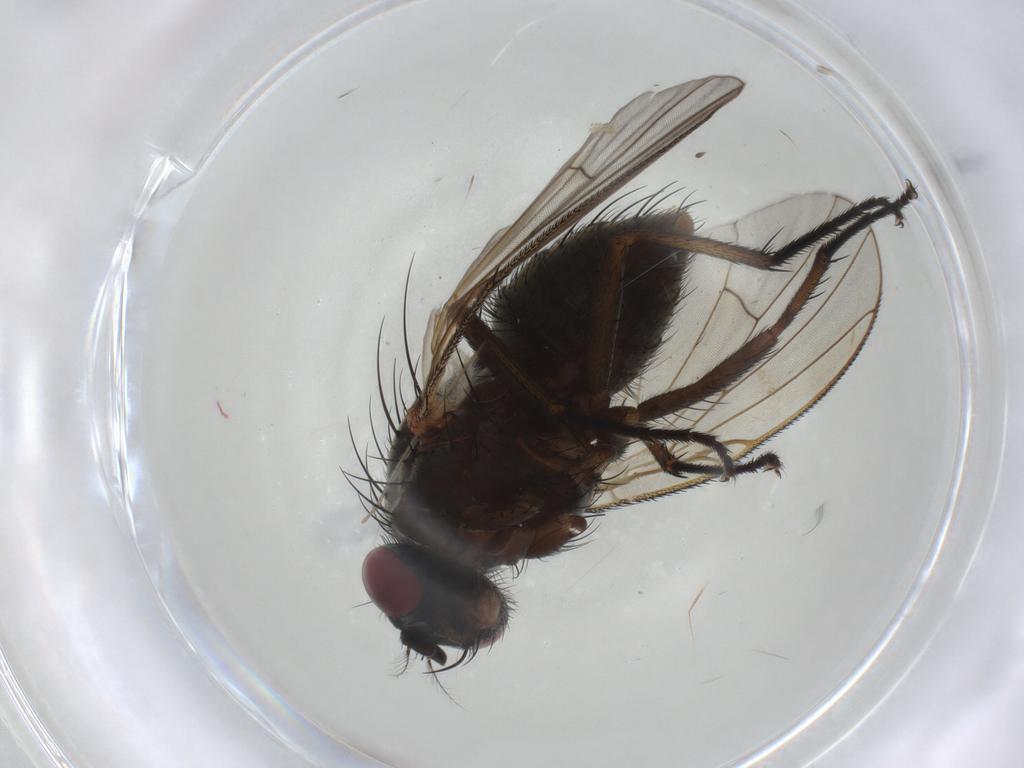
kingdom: Animalia
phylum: Arthropoda
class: Insecta
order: Diptera
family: Muscidae
